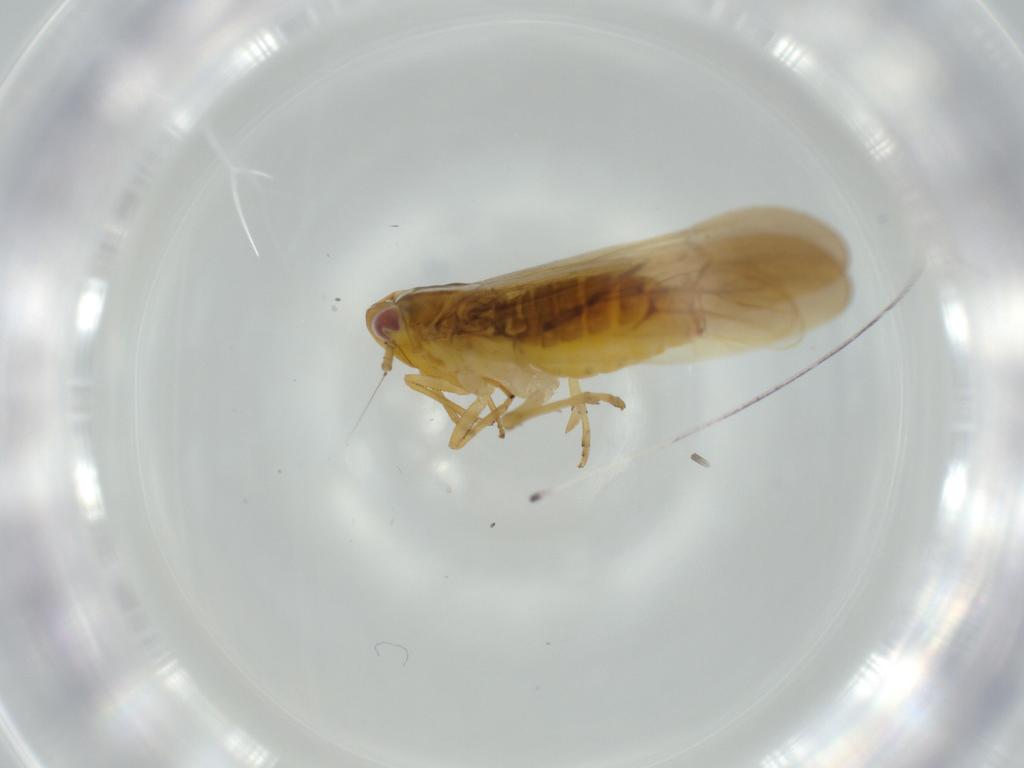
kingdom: Animalia
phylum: Arthropoda
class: Insecta
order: Hemiptera
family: Delphacidae
